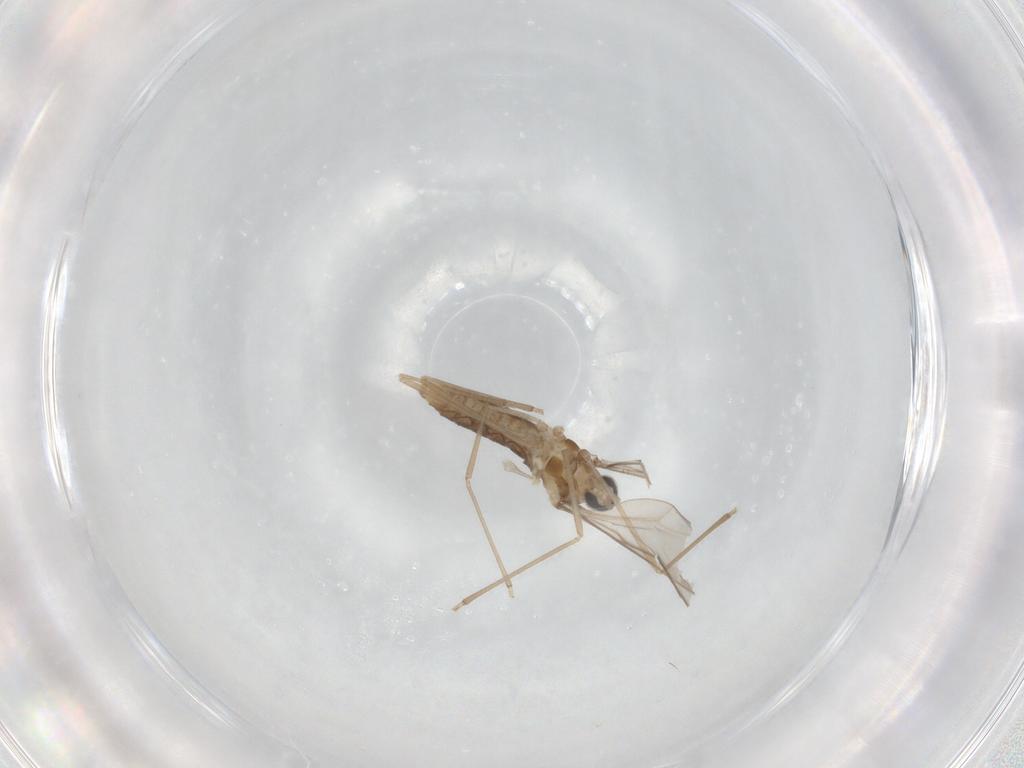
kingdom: Animalia
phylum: Arthropoda
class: Insecta
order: Diptera
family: Cecidomyiidae
